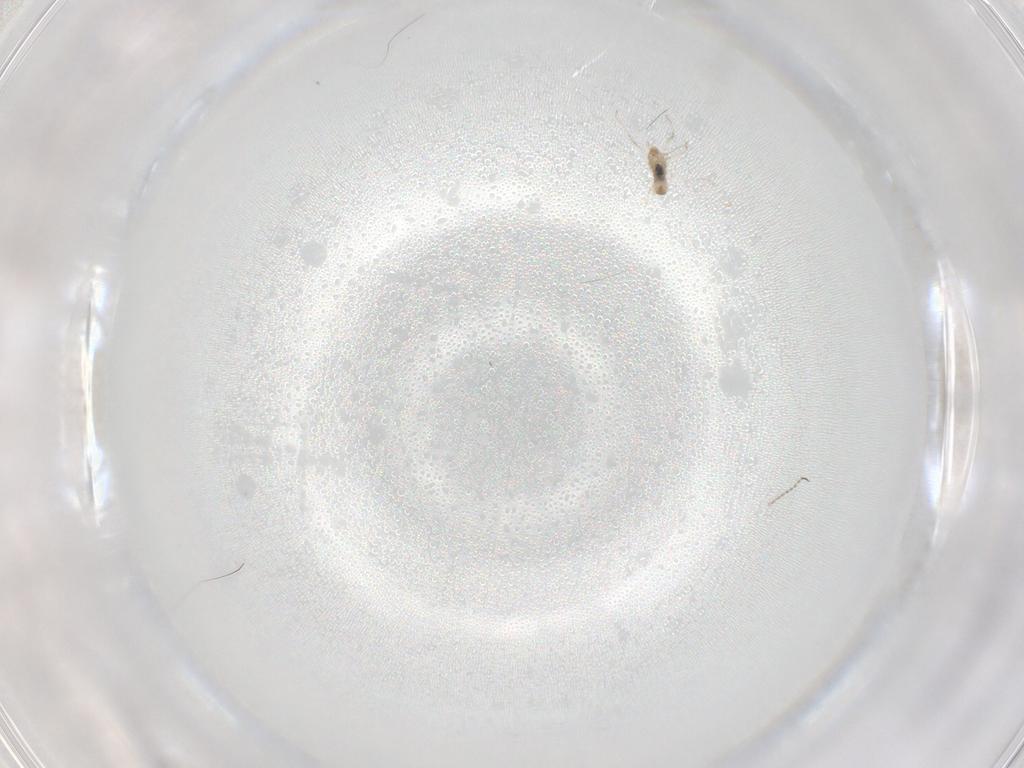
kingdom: Animalia
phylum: Arthropoda
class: Insecta
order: Diptera
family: Cecidomyiidae
